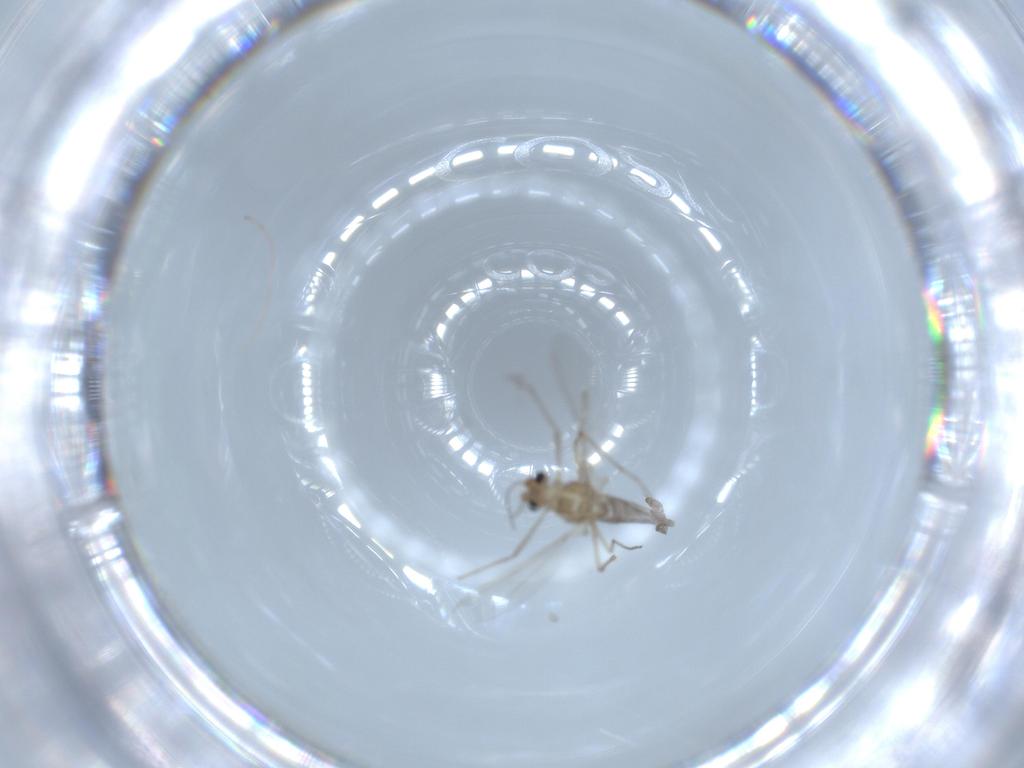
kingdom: Animalia
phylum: Arthropoda
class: Insecta
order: Diptera
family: Chironomidae
